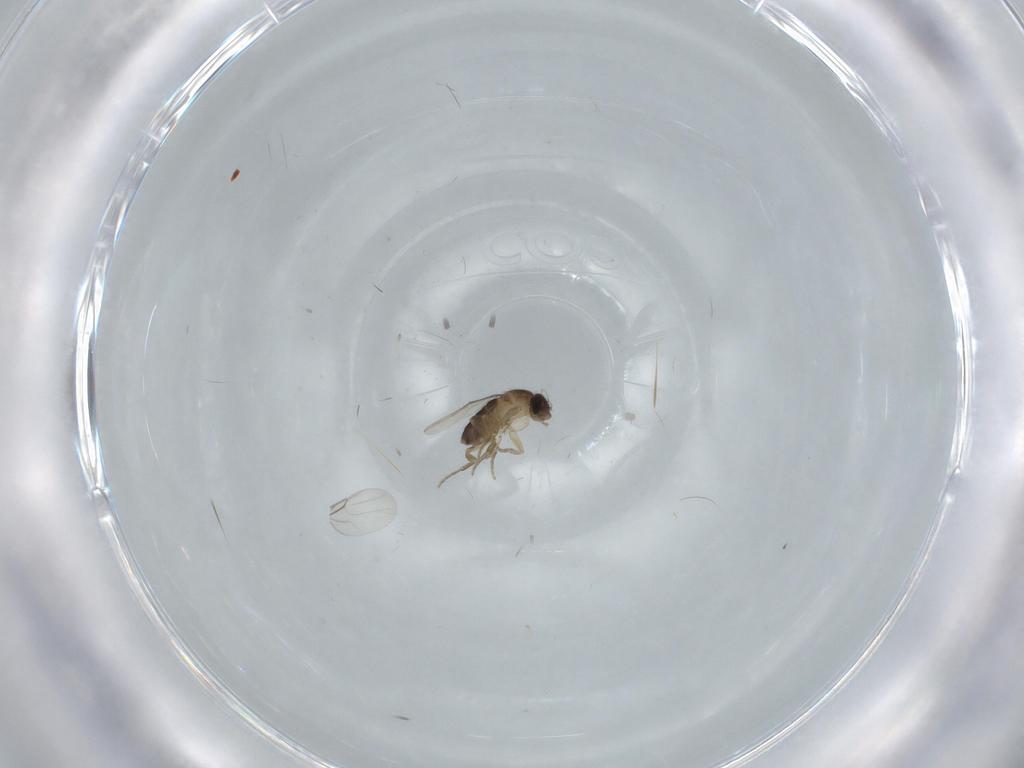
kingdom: Animalia
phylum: Arthropoda
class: Insecta
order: Diptera
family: Phoridae
